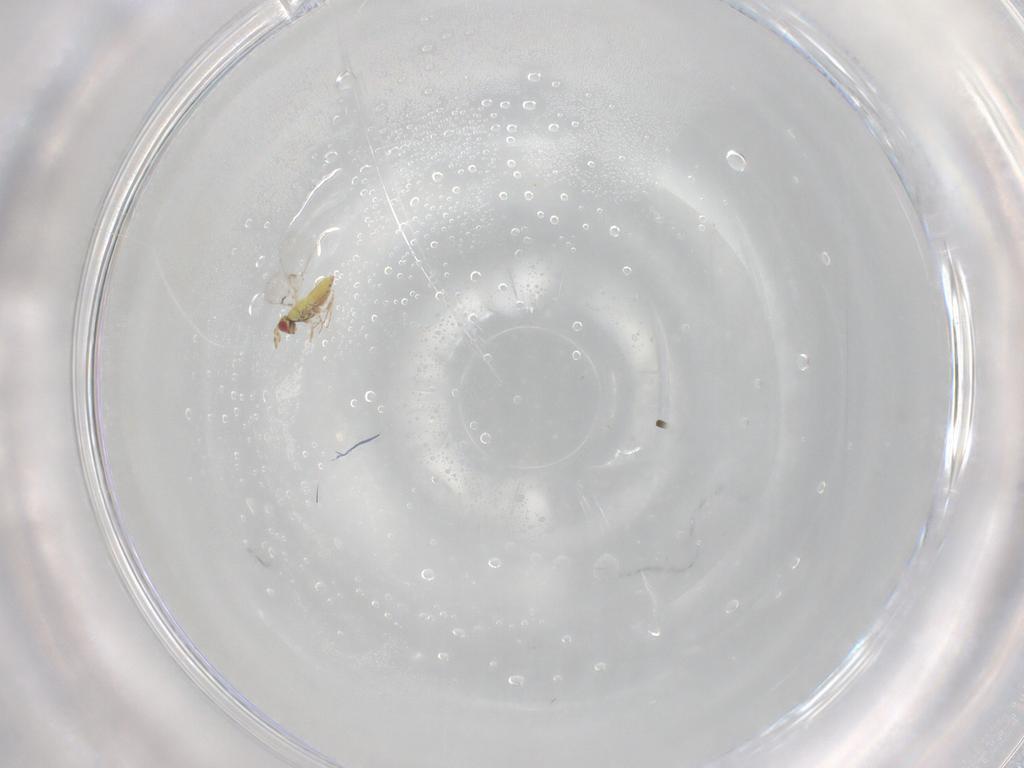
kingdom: Animalia
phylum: Arthropoda
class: Insecta
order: Hymenoptera
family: Trichogrammatidae
